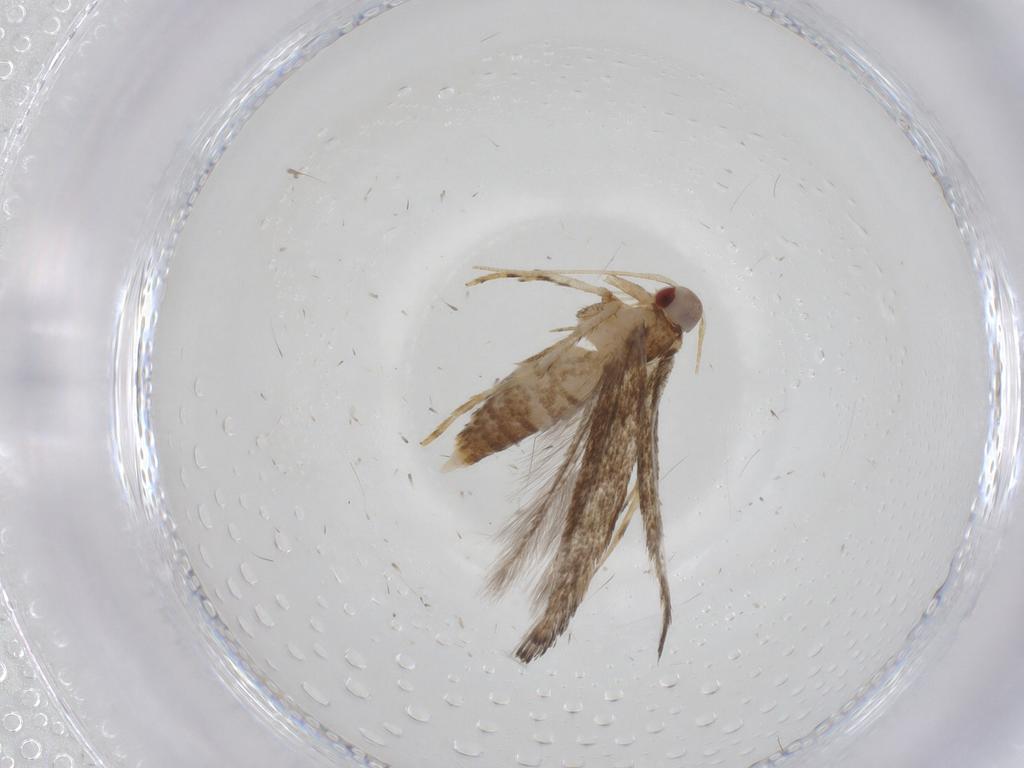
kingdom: Animalia
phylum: Arthropoda
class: Insecta
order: Lepidoptera
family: Cosmopterigidae
